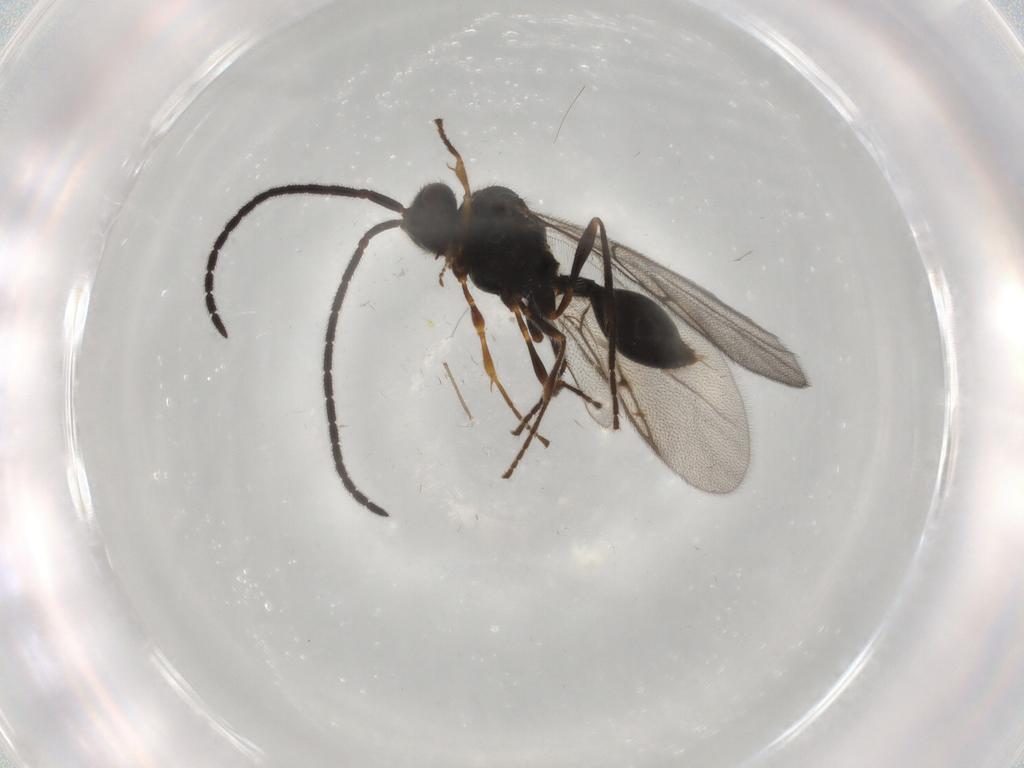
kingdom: Animalia
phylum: Arthropoda
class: Insecta
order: Hymenoptera
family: Diapriidae
